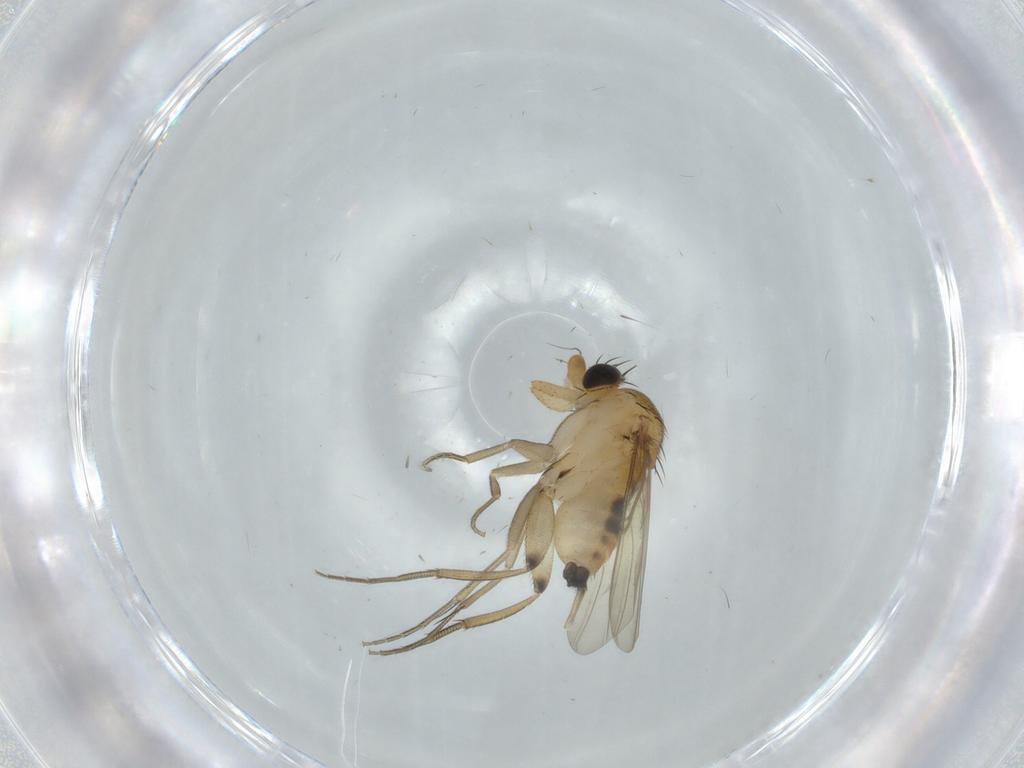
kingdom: Animalia
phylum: Arthropoda
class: Insecta
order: Diptera
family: Phoridae
